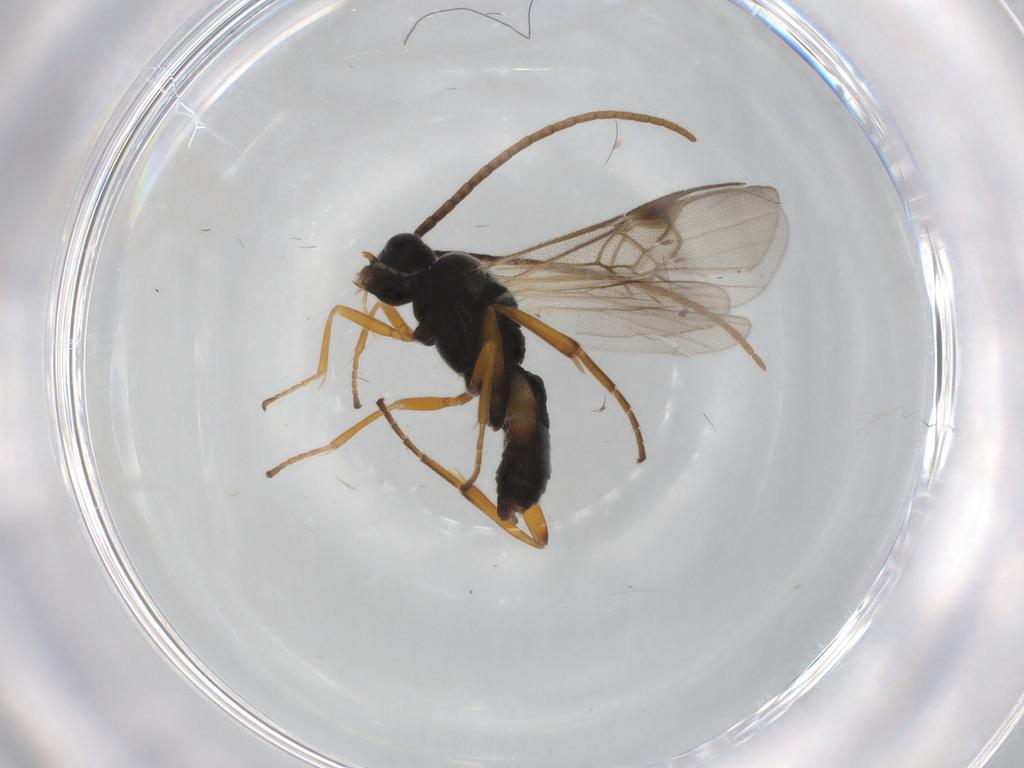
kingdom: Animalia
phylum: Arthropoda
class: Insecta
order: Hymenoptera
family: Braconidae
